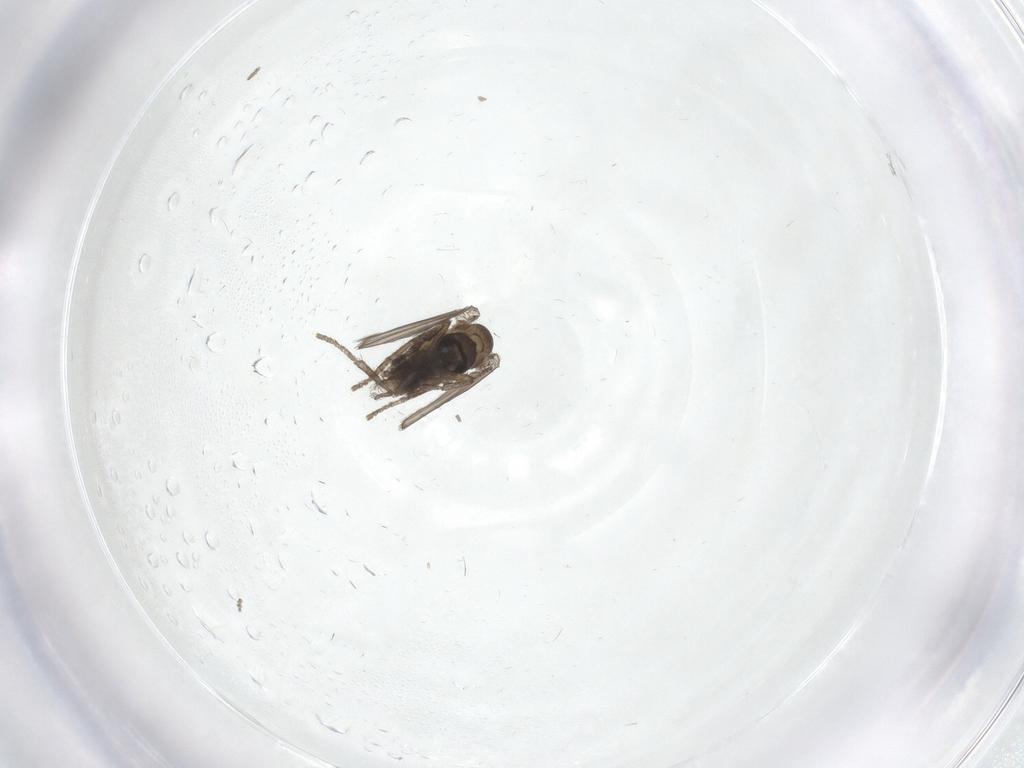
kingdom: Animalia
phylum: Arthropoda
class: Insecta
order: Diptera
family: Psychodidae
